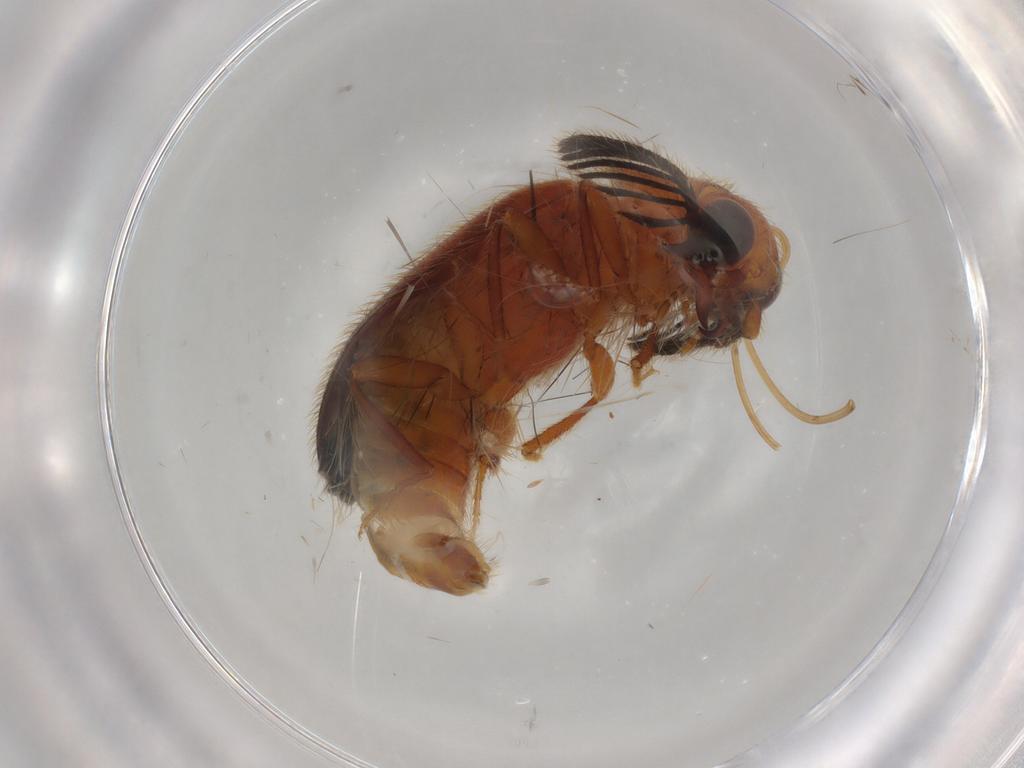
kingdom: Animalia
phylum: Arthropoda
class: Insecta
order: Coleoptera
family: Elateridae
